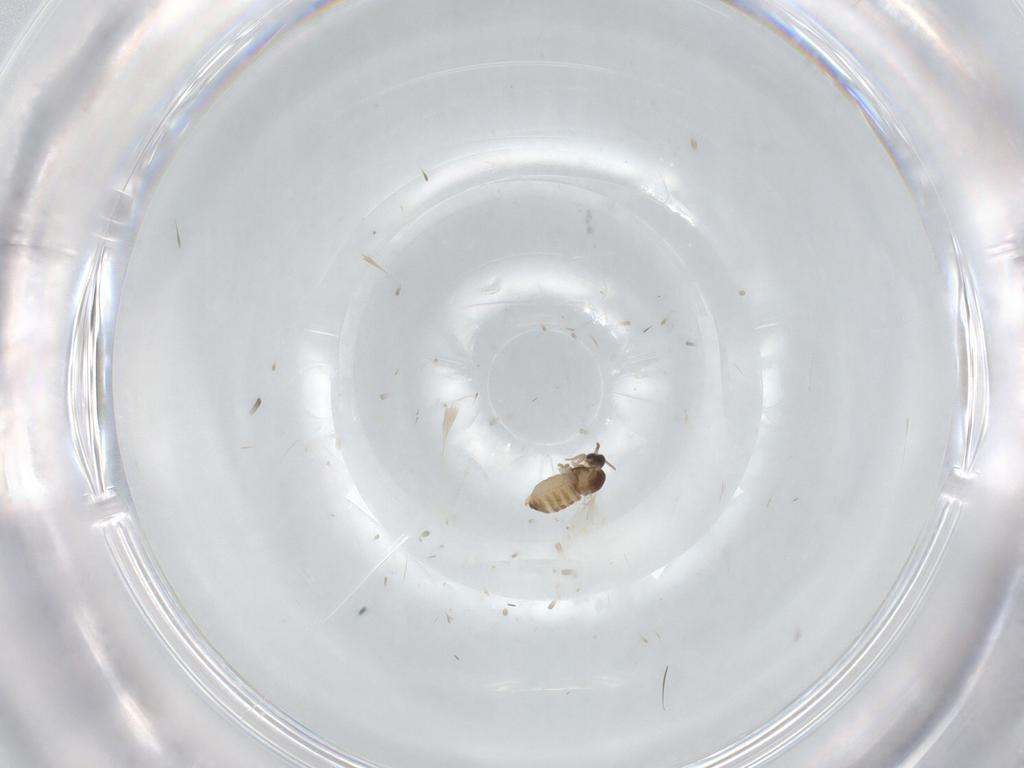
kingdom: Animalia
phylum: Arthropoda
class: Insecta
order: Diptera
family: Cecidomyiidae
